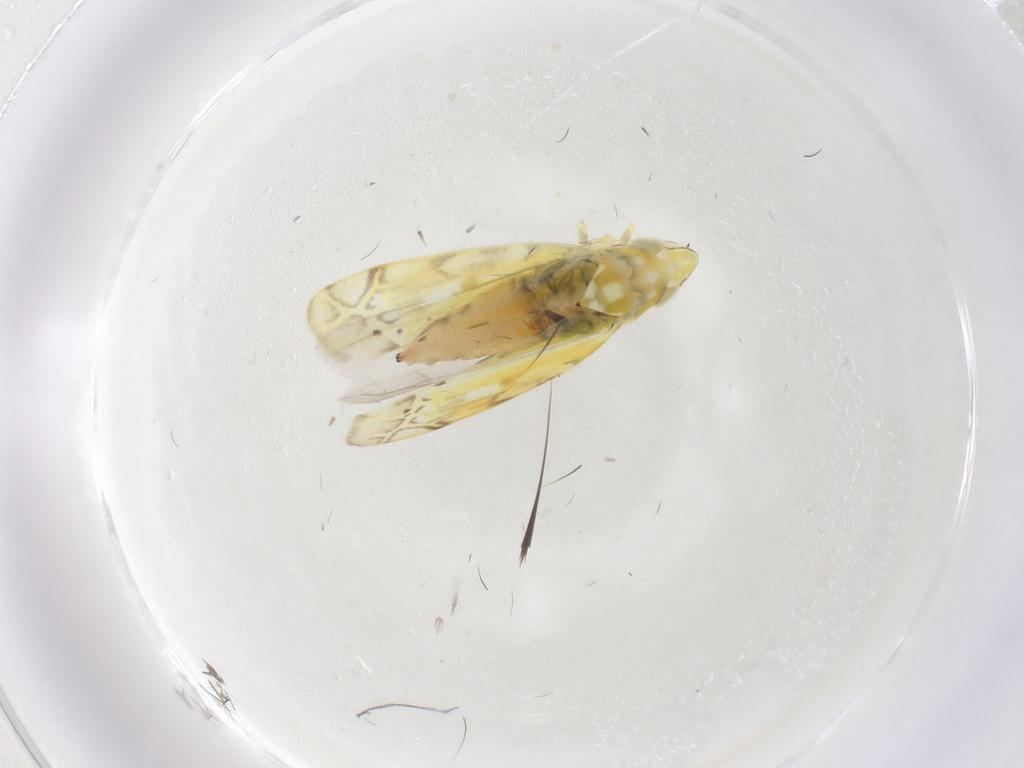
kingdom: Animalia
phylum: Arthropoda
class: Insecta
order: Hemiptera
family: Cicadellidae
